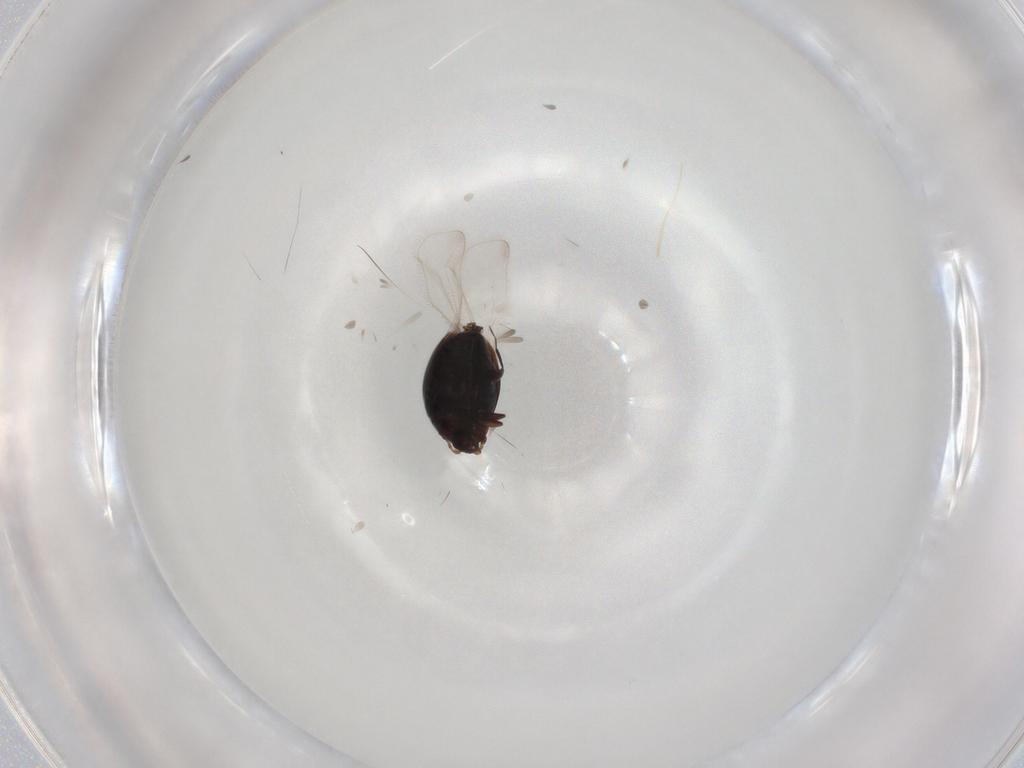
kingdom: Animalia
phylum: Arthropoda
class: Insecta
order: Coleoptera
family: Corylophidae
